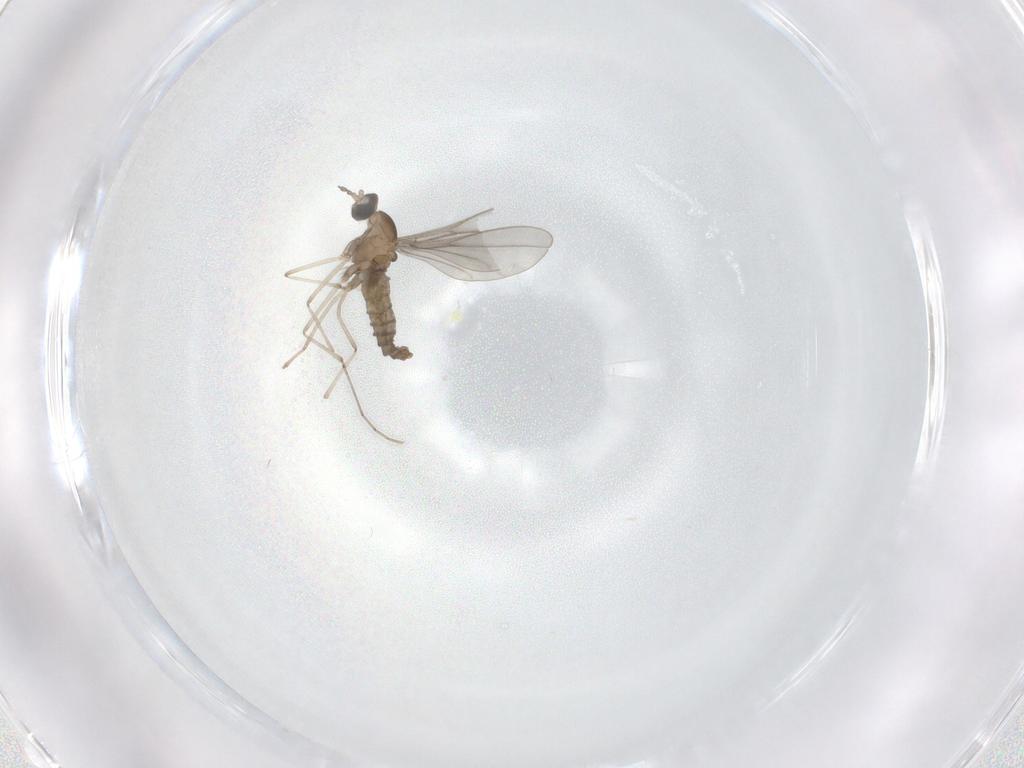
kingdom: Animalia
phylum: Arthropoda
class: Insecta
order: Diptera
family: Cecidomyiidae
